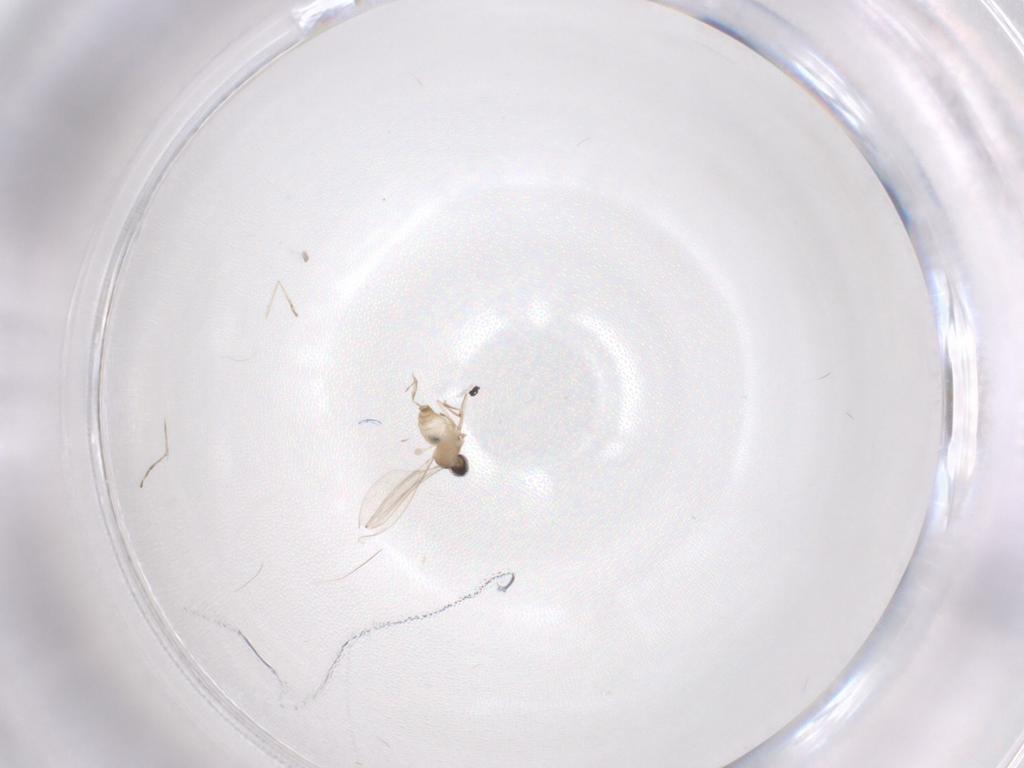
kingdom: Animalia
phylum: Arthropoda
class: Insecta
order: Diptera
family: Cecidomyiidae
